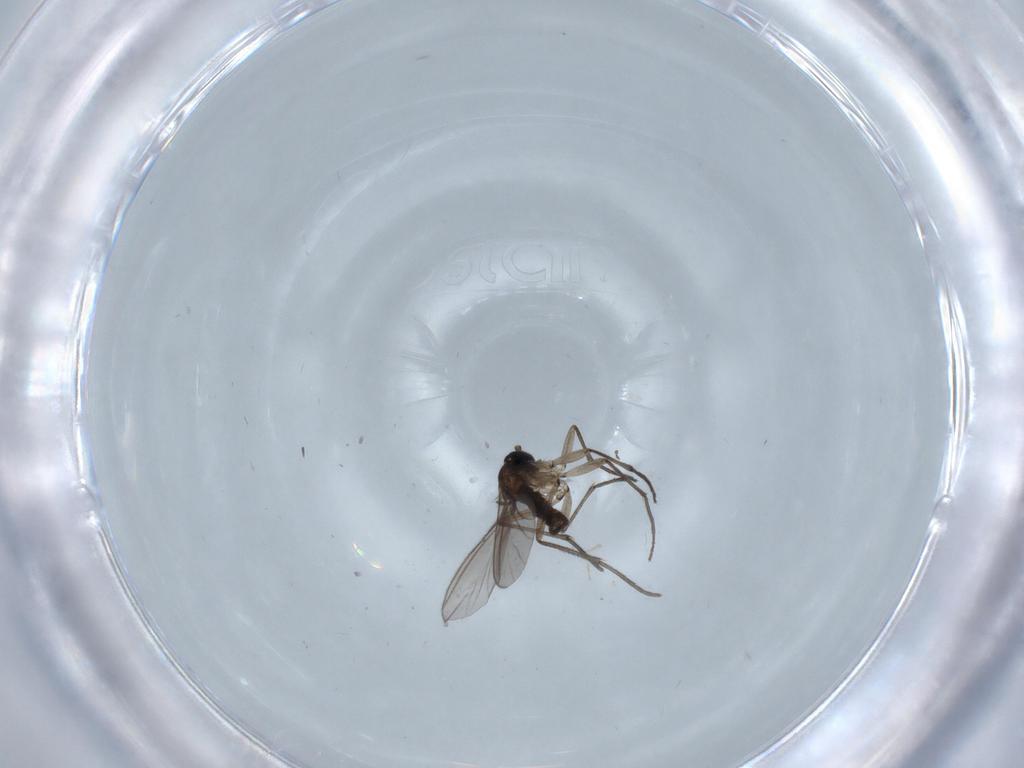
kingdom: Animalia
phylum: Arthropoda
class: Insecta
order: Diptera
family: Sciaridae
